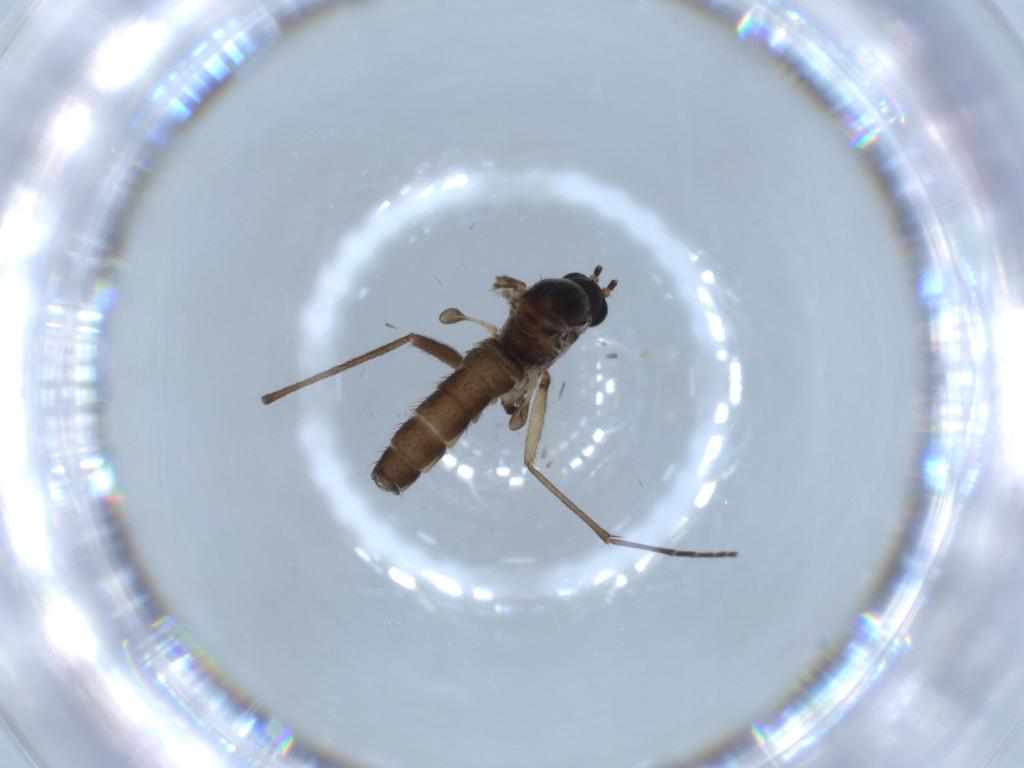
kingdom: Animalia
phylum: Arthropoda
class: Insecta
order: Diptera
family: Sciaridae
